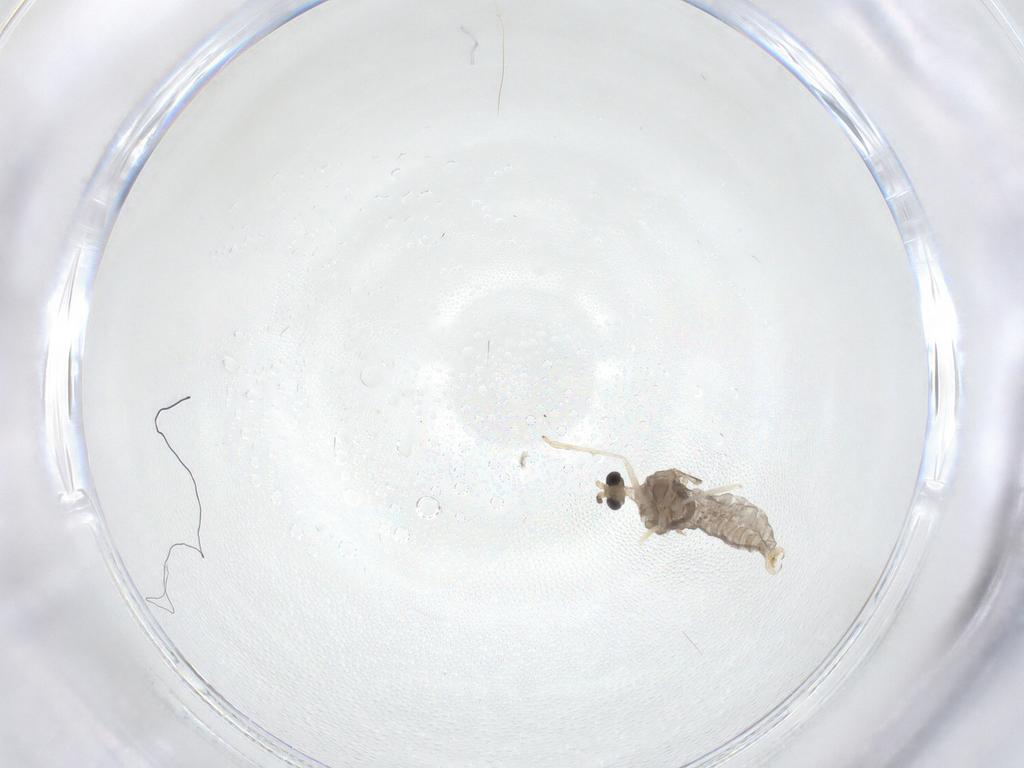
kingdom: Animalia
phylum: Arthropoda
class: Insecta
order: Diptera
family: Cecidomyiidae
